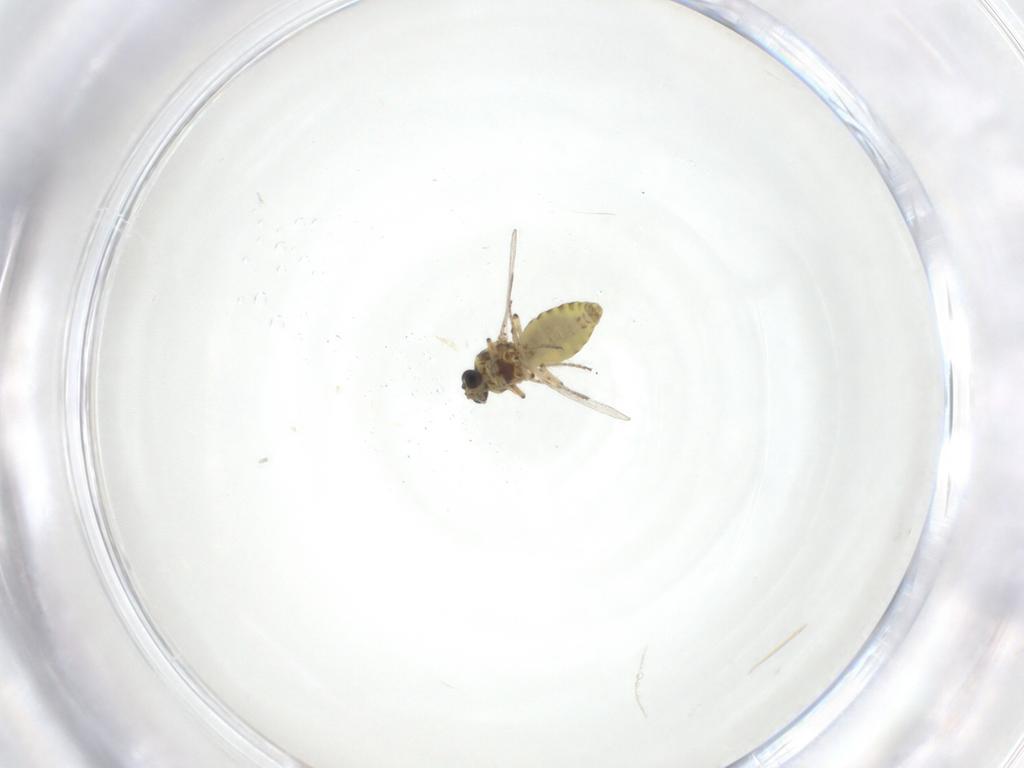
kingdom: Animalia
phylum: Arthropoda
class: Insecta
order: Diptera
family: Ceratopogonidae
